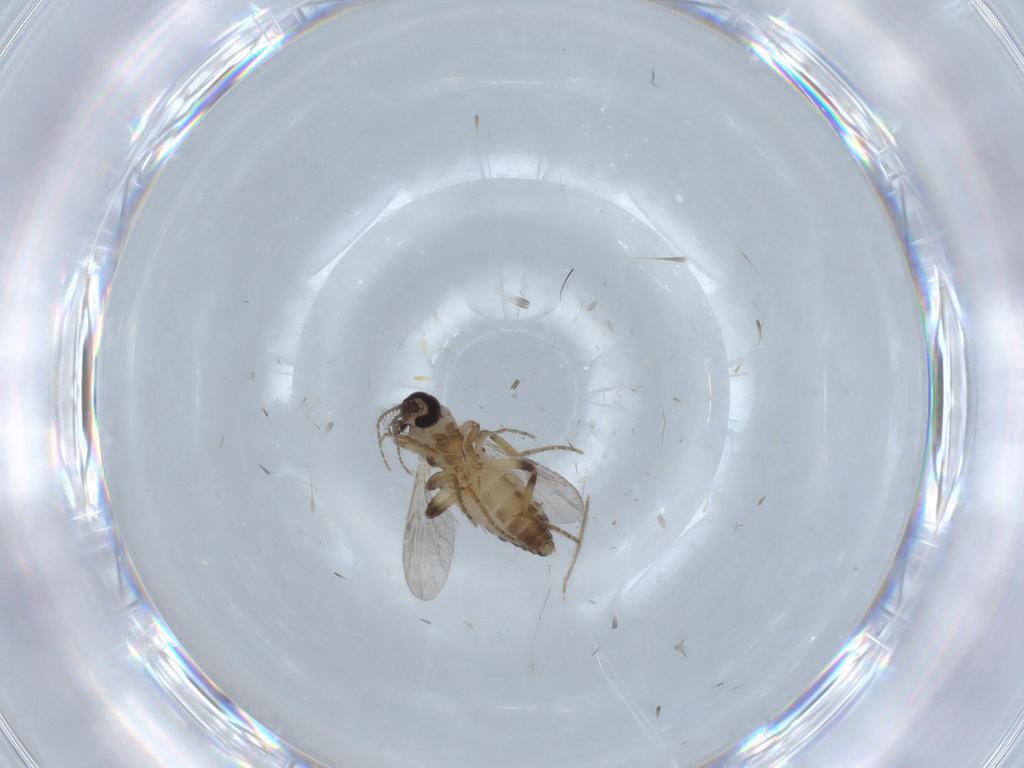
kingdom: Animalia
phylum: Arthropoda
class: Insecta
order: Diptera
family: Ceratopogonidae
